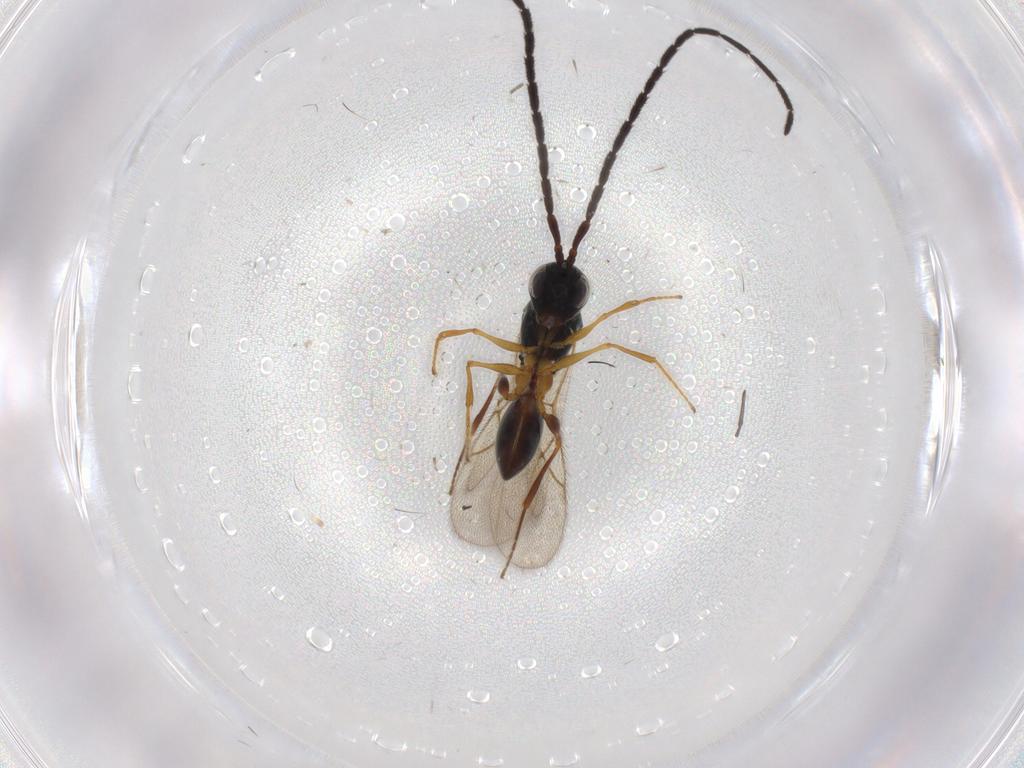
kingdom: Animalia
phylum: Arthropoda
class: Insecta
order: Hymenoptera
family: Figitidae
